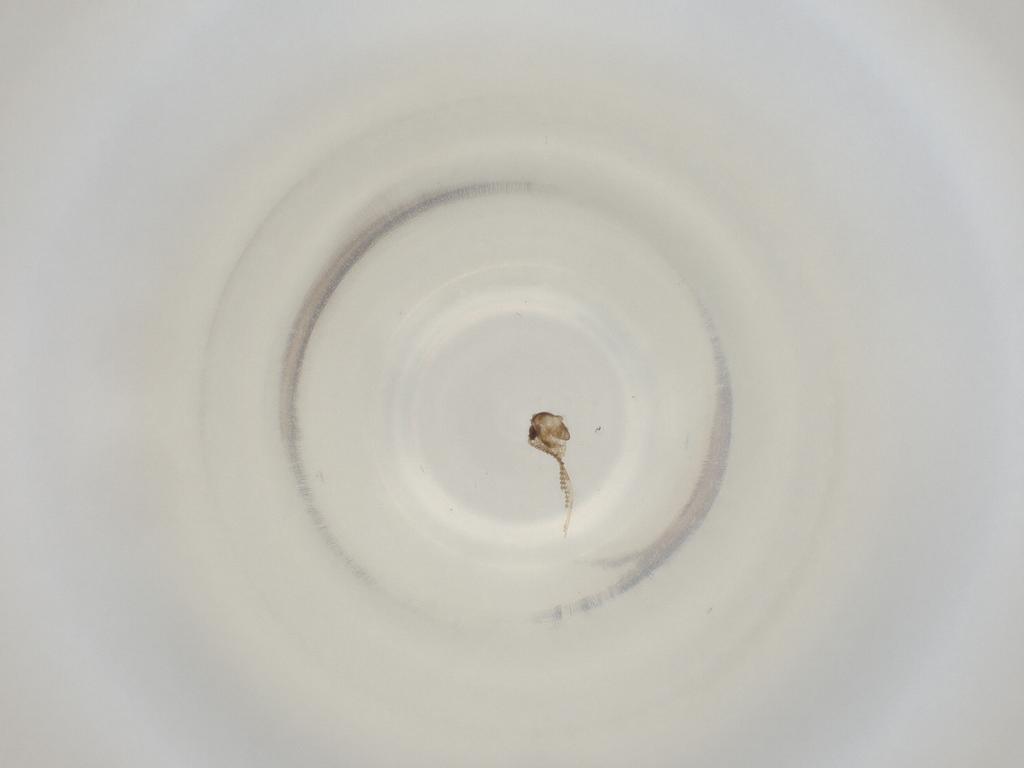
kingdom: Animalia
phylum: Arthropoda
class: Insecta
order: Diptera
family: Cecidomyiidae
